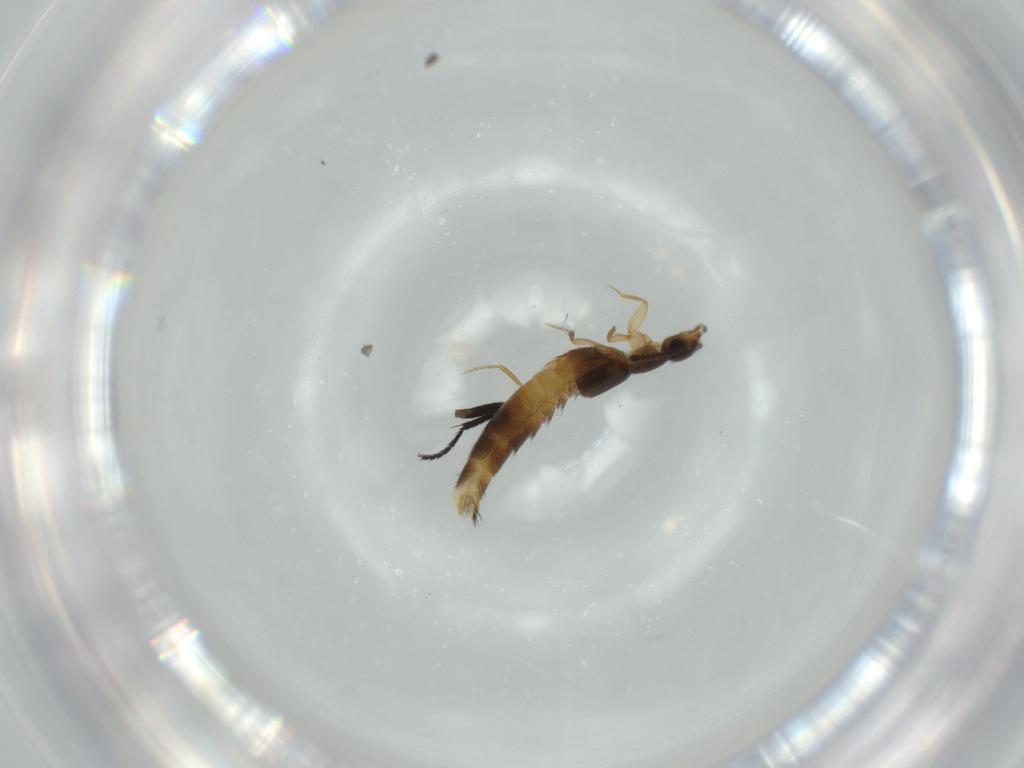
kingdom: Animalia
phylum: Arthropoda
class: Insecta
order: Coleoptera
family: Staphylinidae
